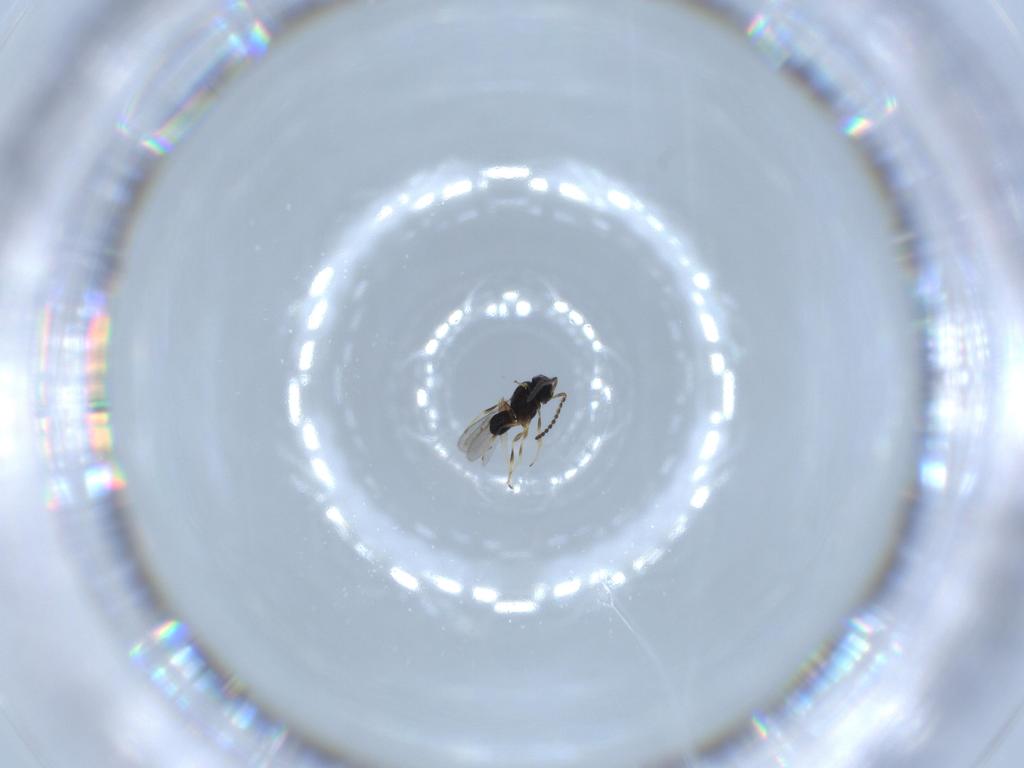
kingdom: Animalia
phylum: Arthropoda
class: Insecta
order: Hymenoptera
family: Scelionidae
